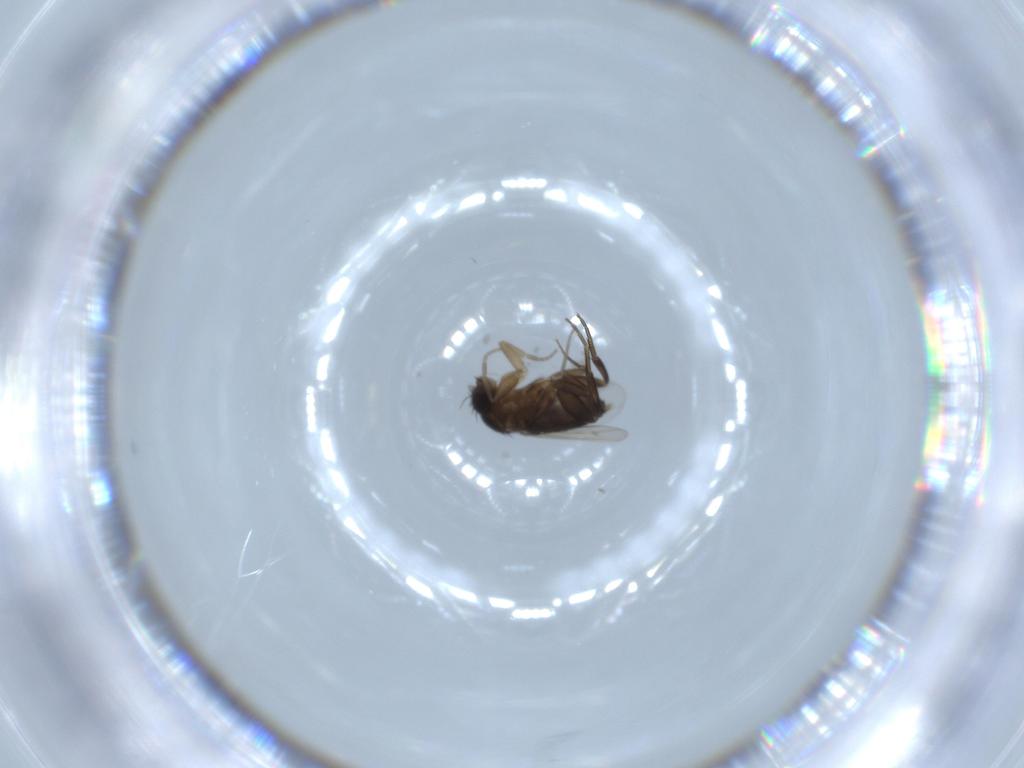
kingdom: Animalia
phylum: Arthropoda
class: Insecta
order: Diptera
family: Phoridae
